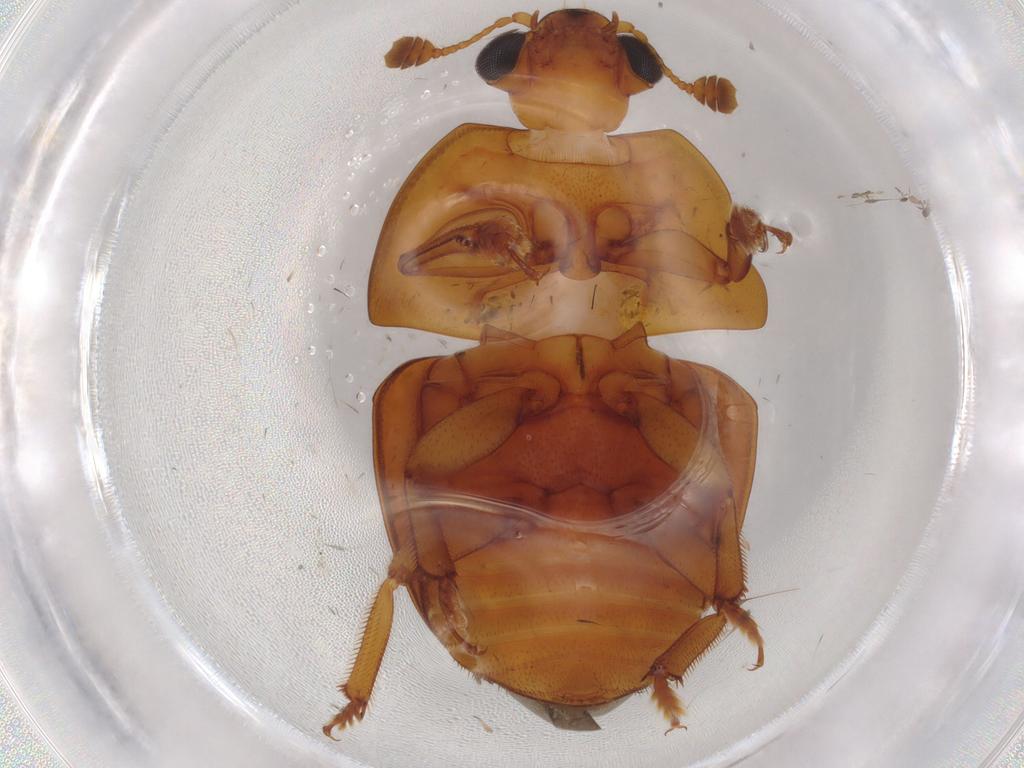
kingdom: Animalia
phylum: Arthropoda
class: Insecta
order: Coleoptera
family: Nitidulidae
